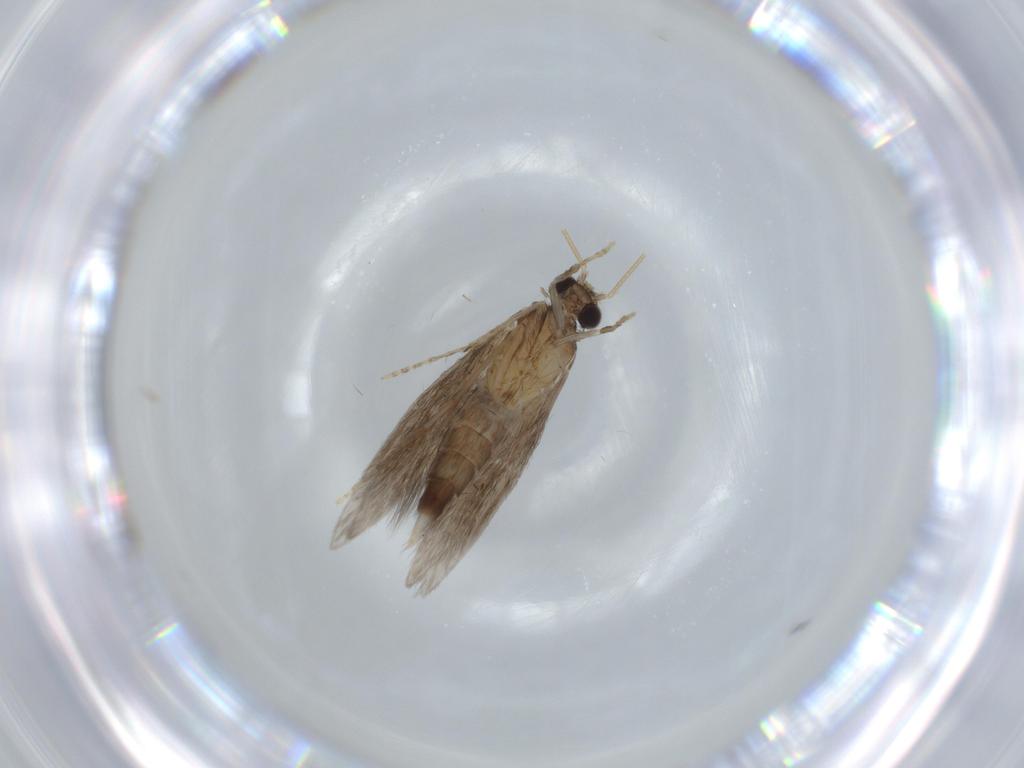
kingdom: Animalia
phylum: Arthropoda
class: Insecta
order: Trichoptera
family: Hydroptilidae
